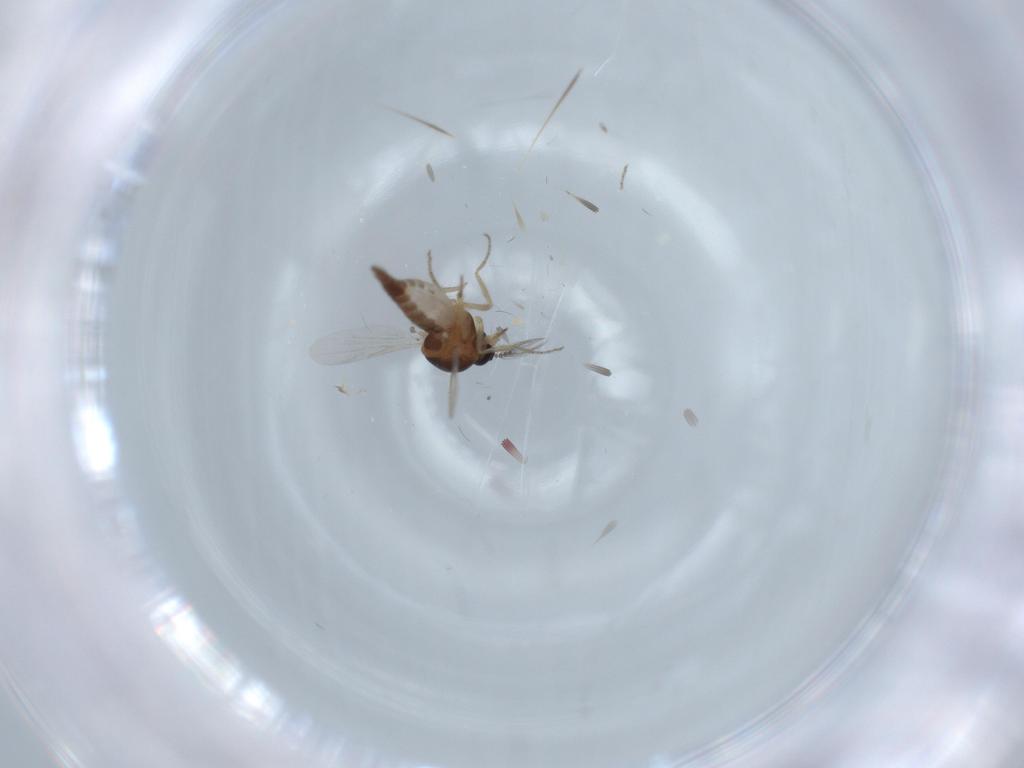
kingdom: Animalia
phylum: Arthropoda
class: Insecta
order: Diptera
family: Ceratopogonidae
